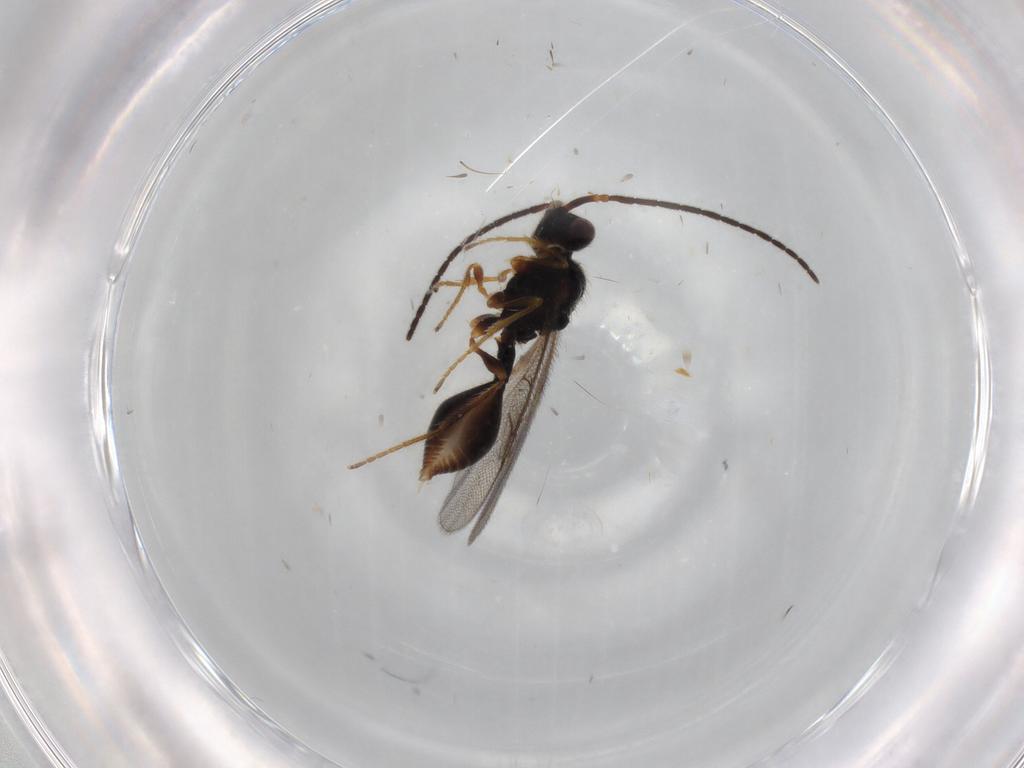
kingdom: Animalia
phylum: Arthropoda
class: Insecta
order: Hymenoptera
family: Diapriidae
